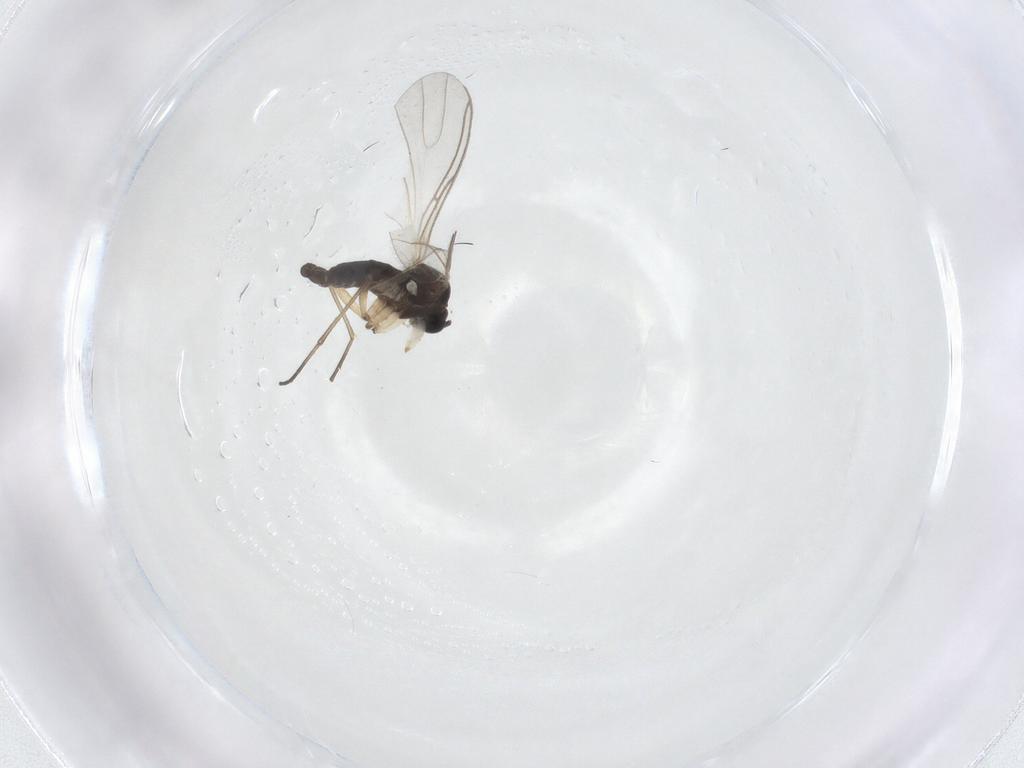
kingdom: Animalia
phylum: Arthropoda
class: Insecta
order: Diptera
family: Sciaridae
